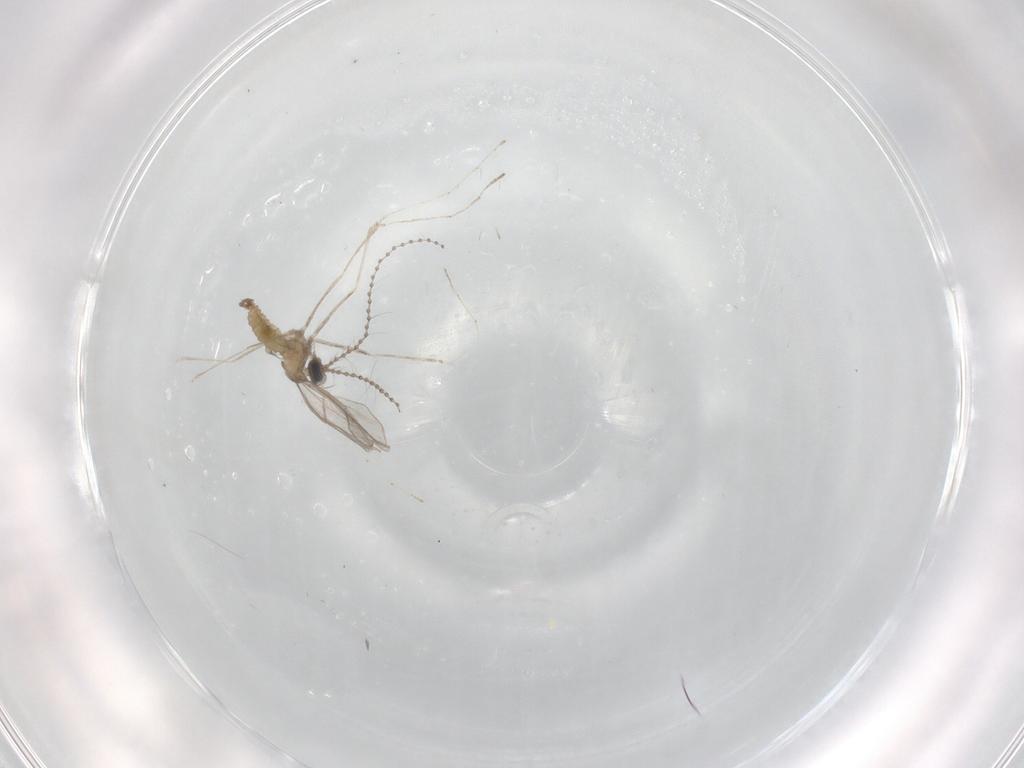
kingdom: Animalia
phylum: Arthropoda
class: Insecta
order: Diptera
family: Cecidomyiidae
